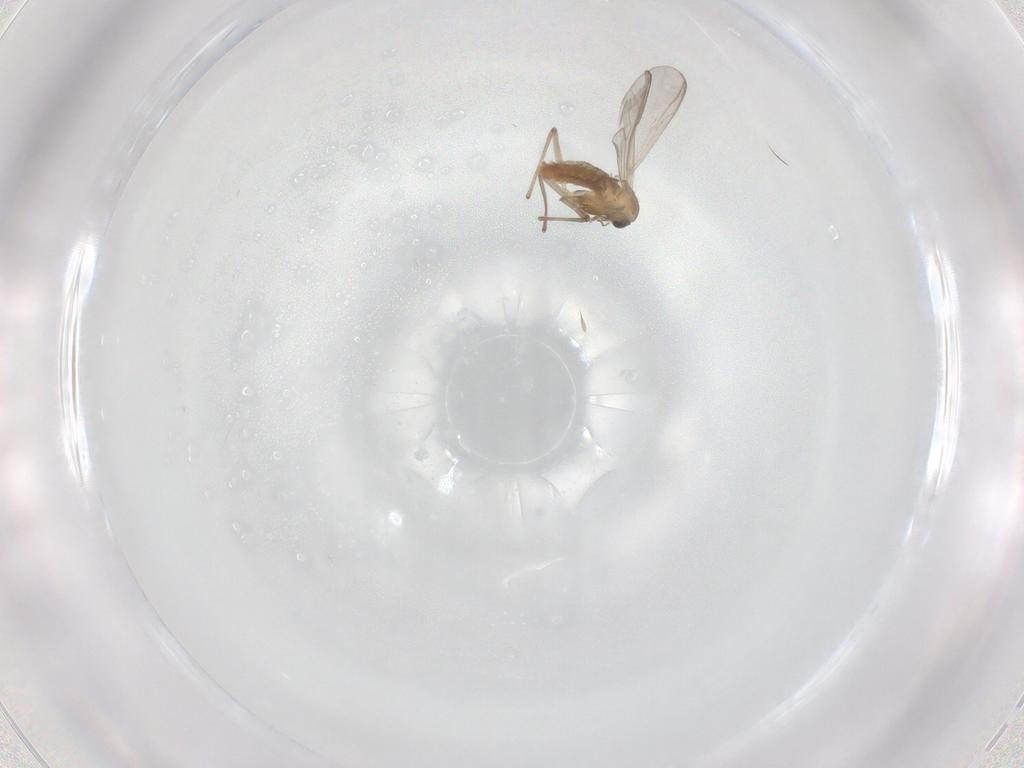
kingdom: Animalia
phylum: Arthropoda
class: Insecta
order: Diptera
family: Chironomidae
